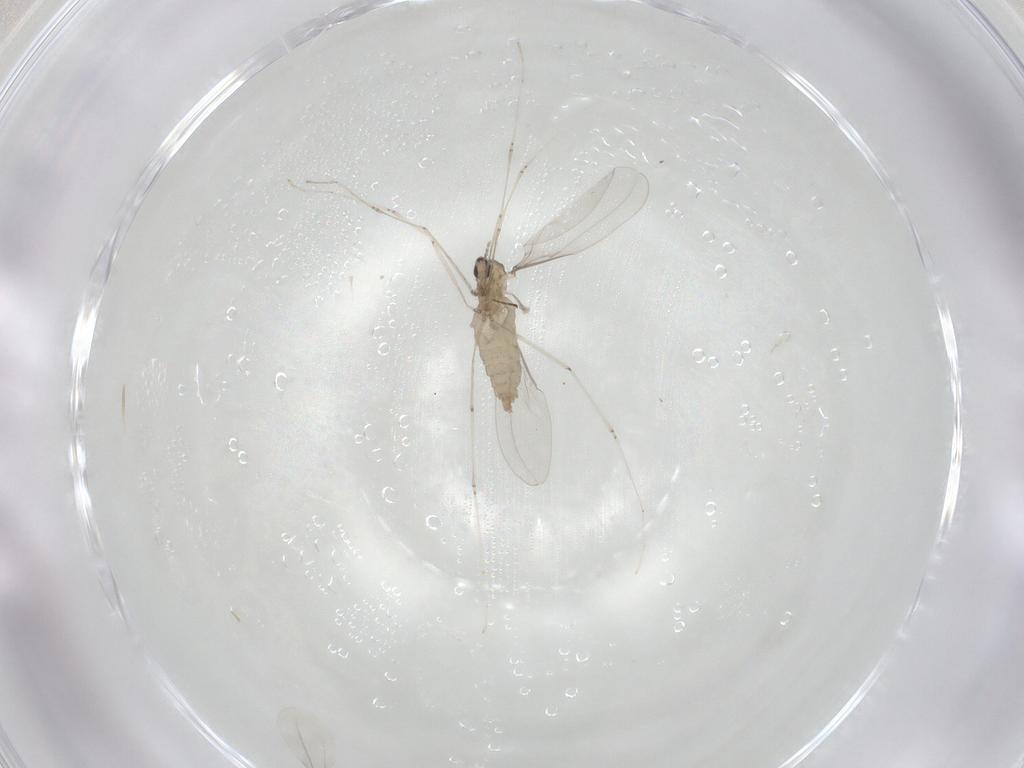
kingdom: Animalia
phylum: Arthropoda
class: Insecta
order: Diptera
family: Cecidomyiidae
